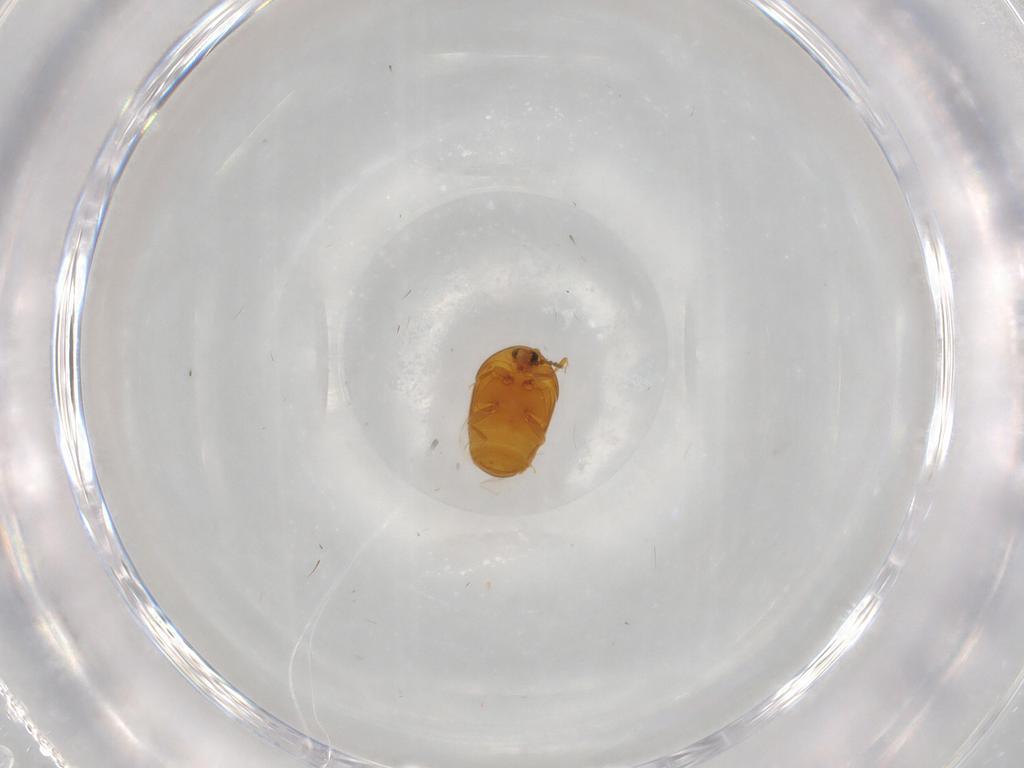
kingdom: Animalia
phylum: Arthropoda
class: Insecta
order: Coleoptera
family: Corylophidae
